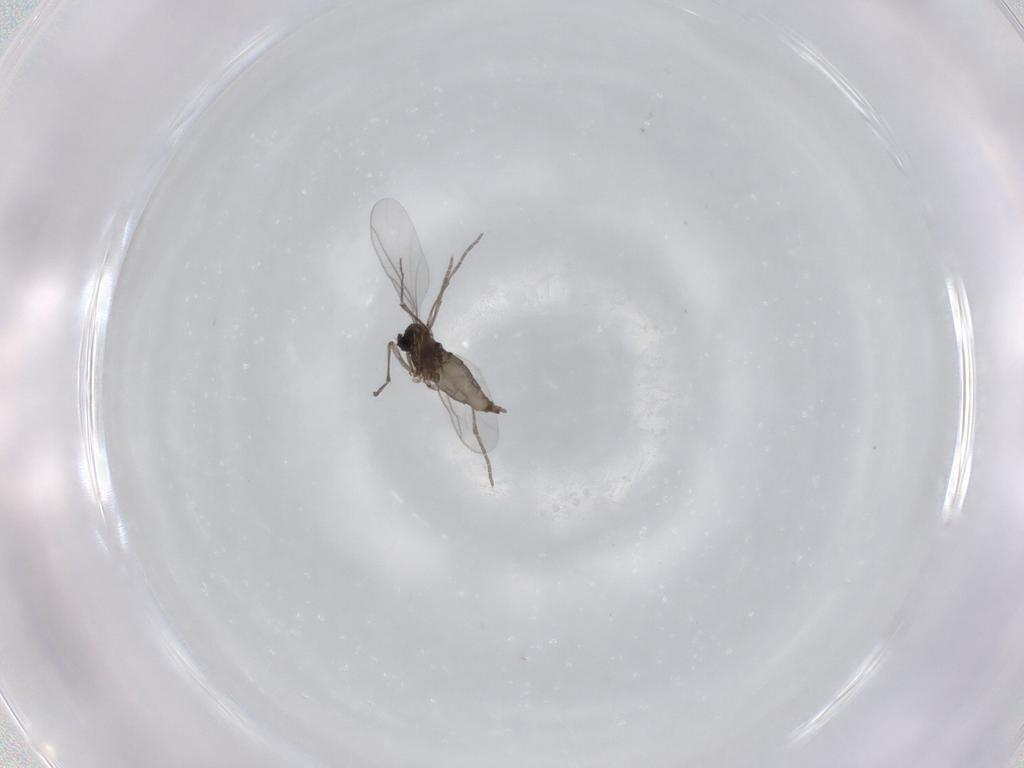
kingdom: Animalia
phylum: Arthropoda
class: Insecta
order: Diptera
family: Sciaridae
